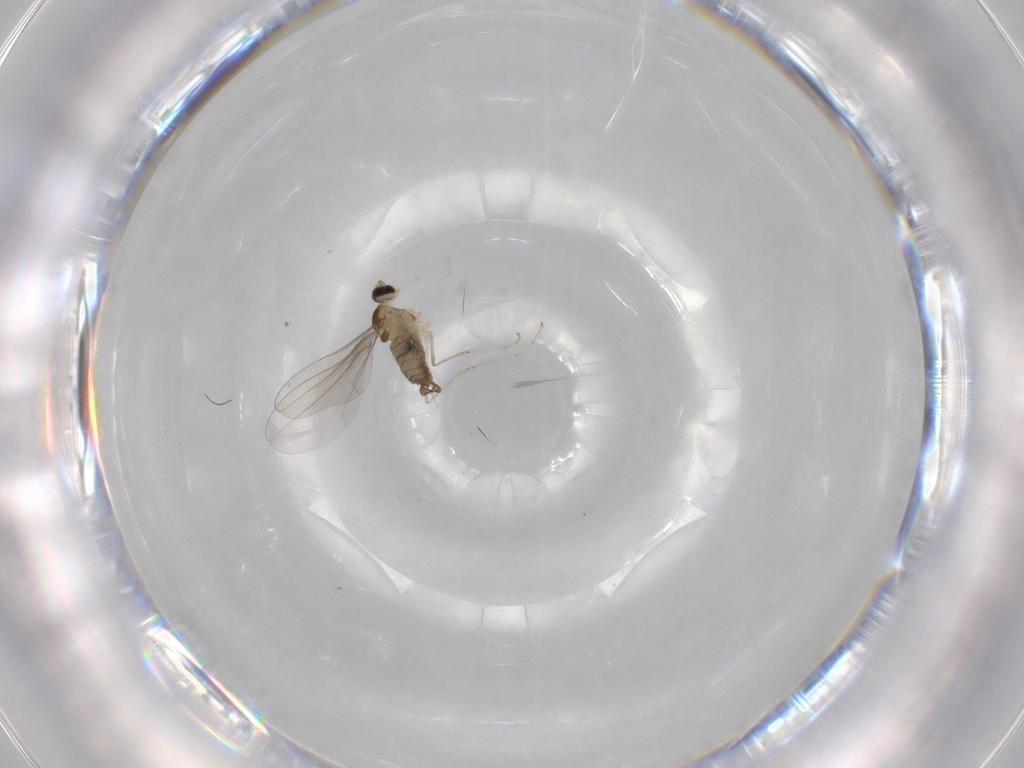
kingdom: Animalia
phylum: Arthropoda
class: Insecta
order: Diptera
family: Cecidomyiidae
